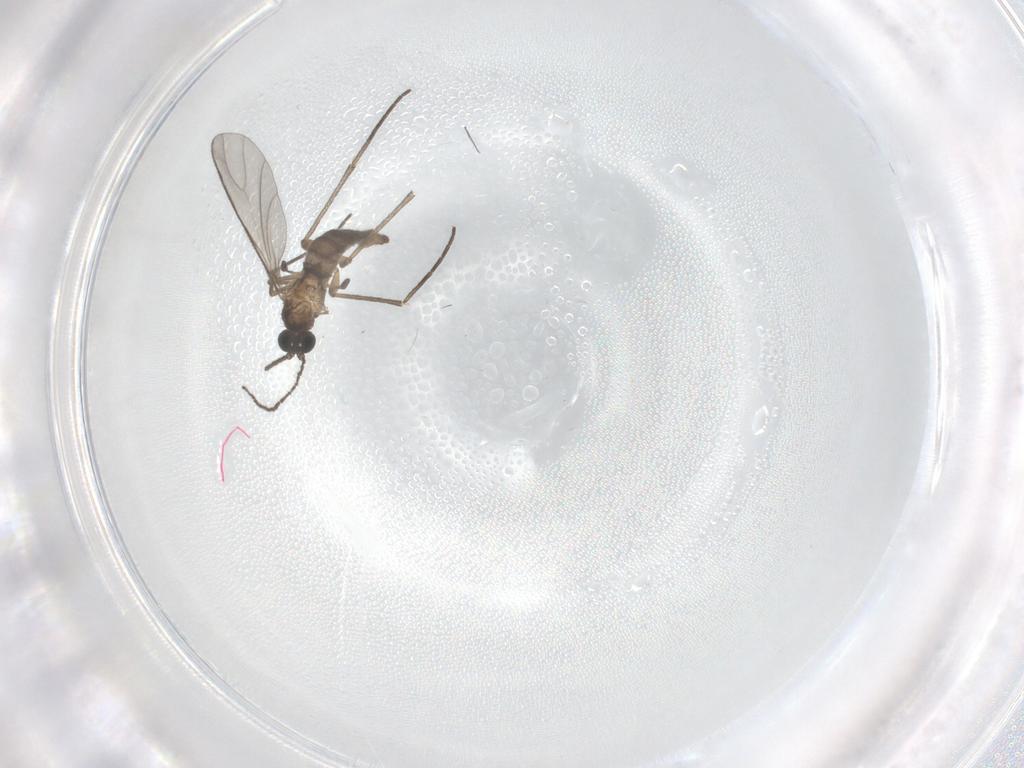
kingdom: Animalia
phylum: Arthropoda
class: Insecta
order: Diptera
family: Sciaridae
